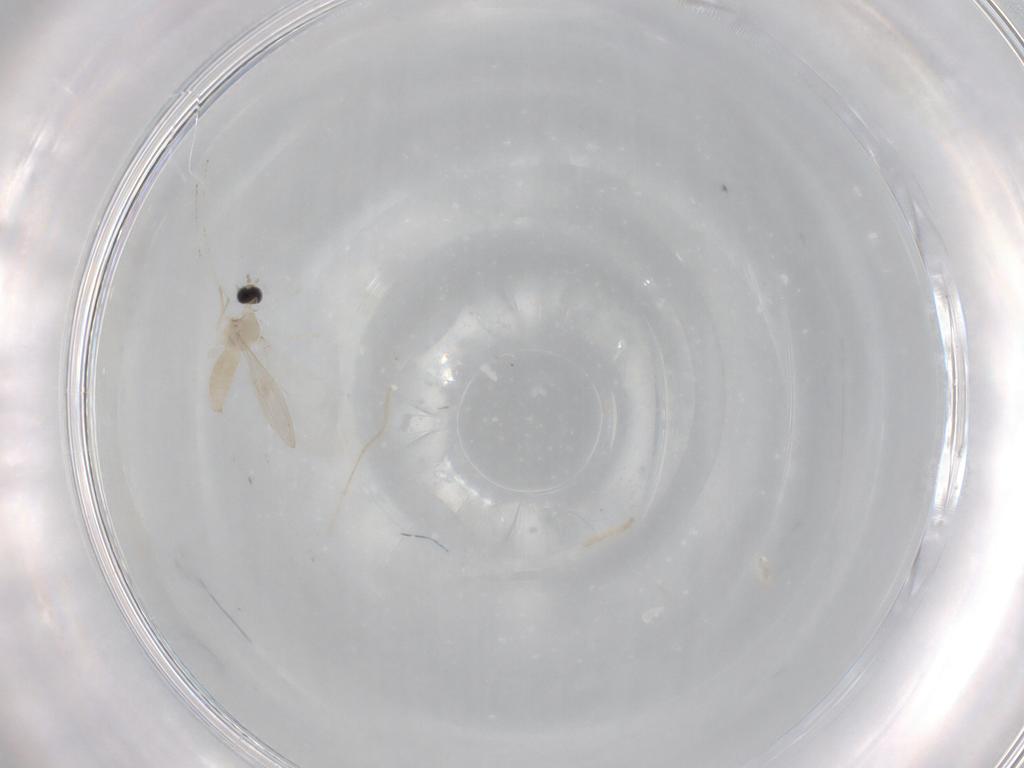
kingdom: Animalia
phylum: Arthropoda
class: Insecta
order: Diptera
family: Cecidomyiidae
